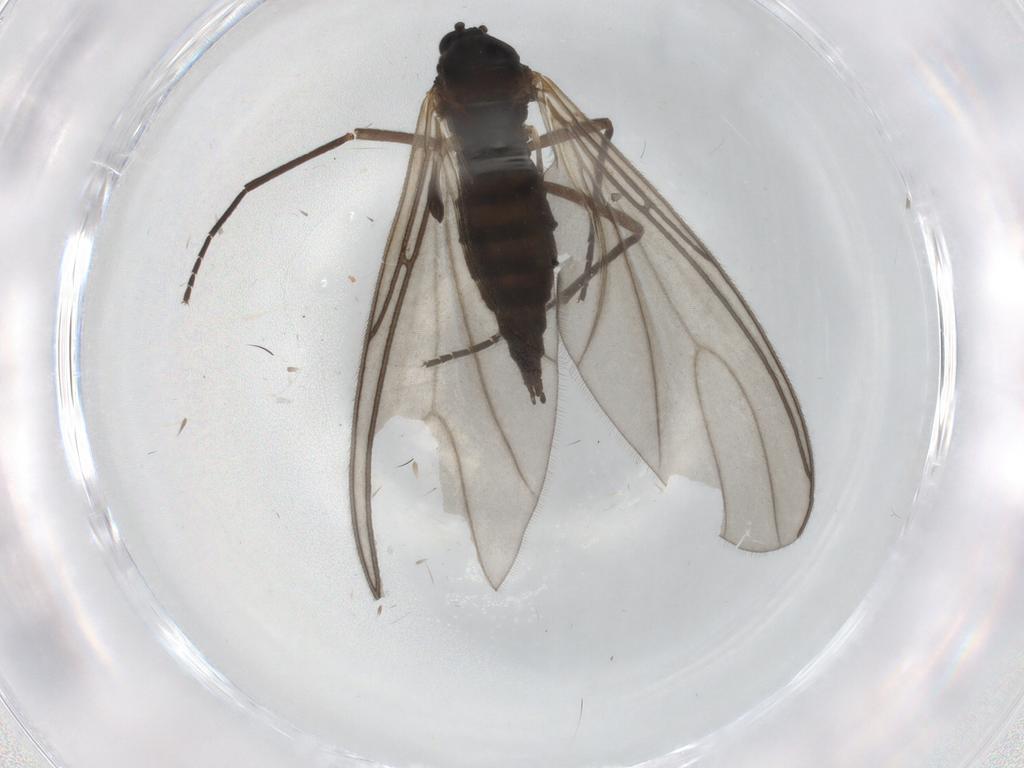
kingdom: Animalia
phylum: Arthropoda
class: Insecta
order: Diptera
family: Sciaridae
